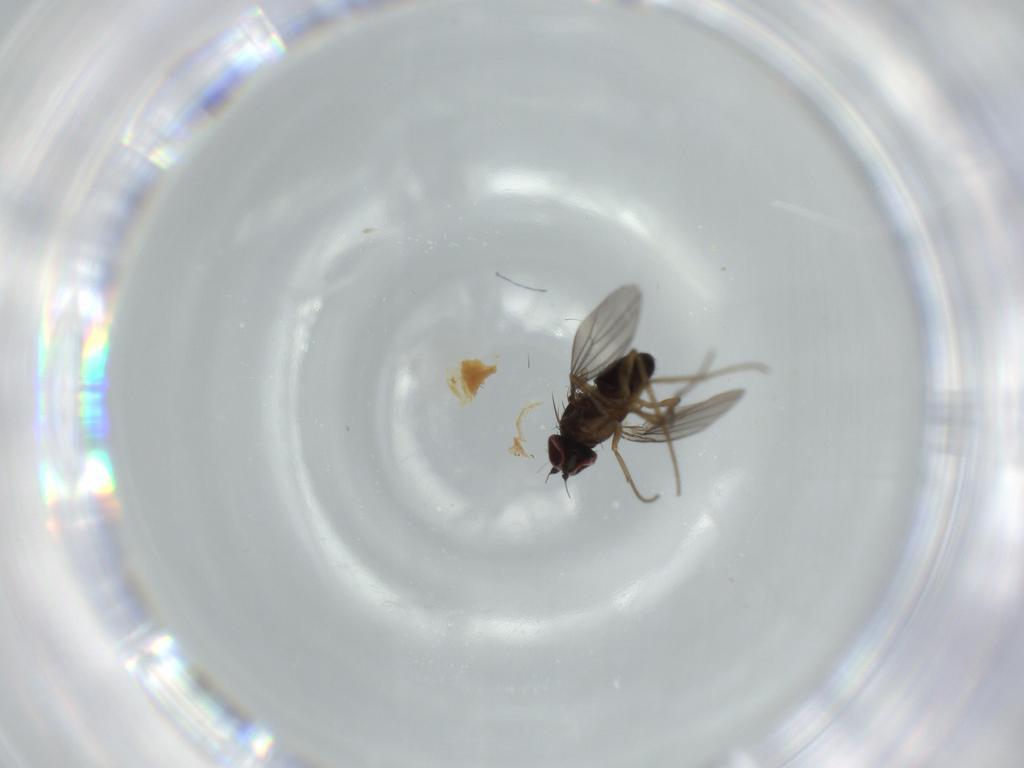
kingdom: Animalia
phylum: Arthropoda
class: Insecta
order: Diptera
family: Dolichopodidae
